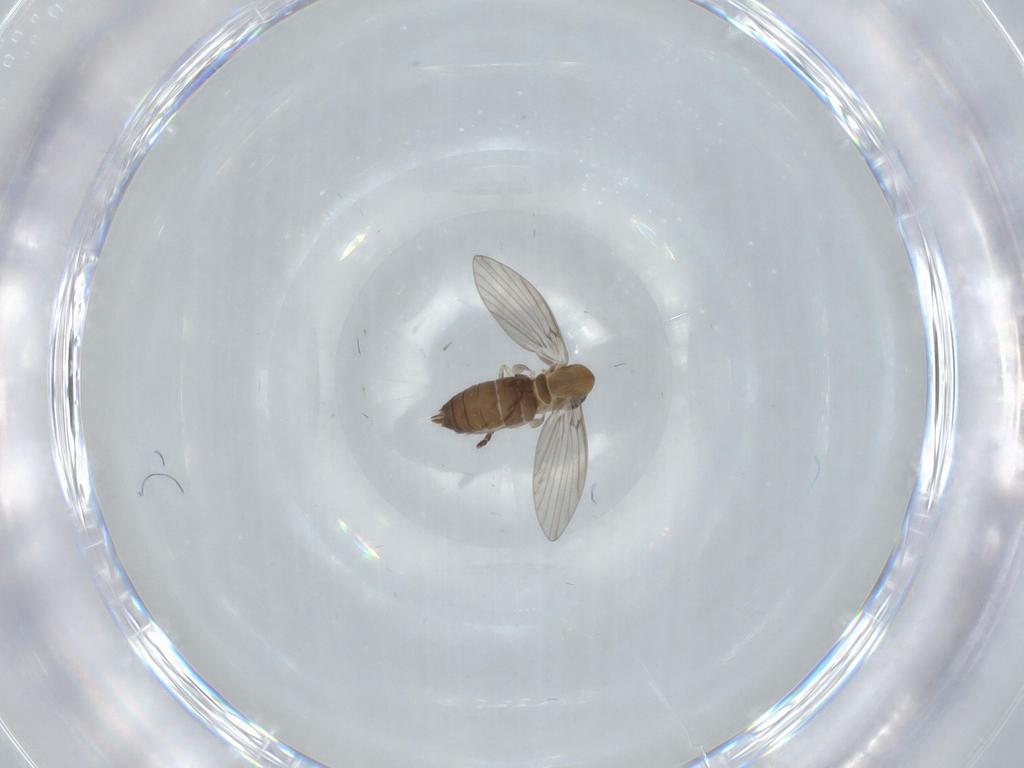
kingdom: Animalia
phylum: Arthropoda
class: Insecta
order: Diptera
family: Psychodidae
